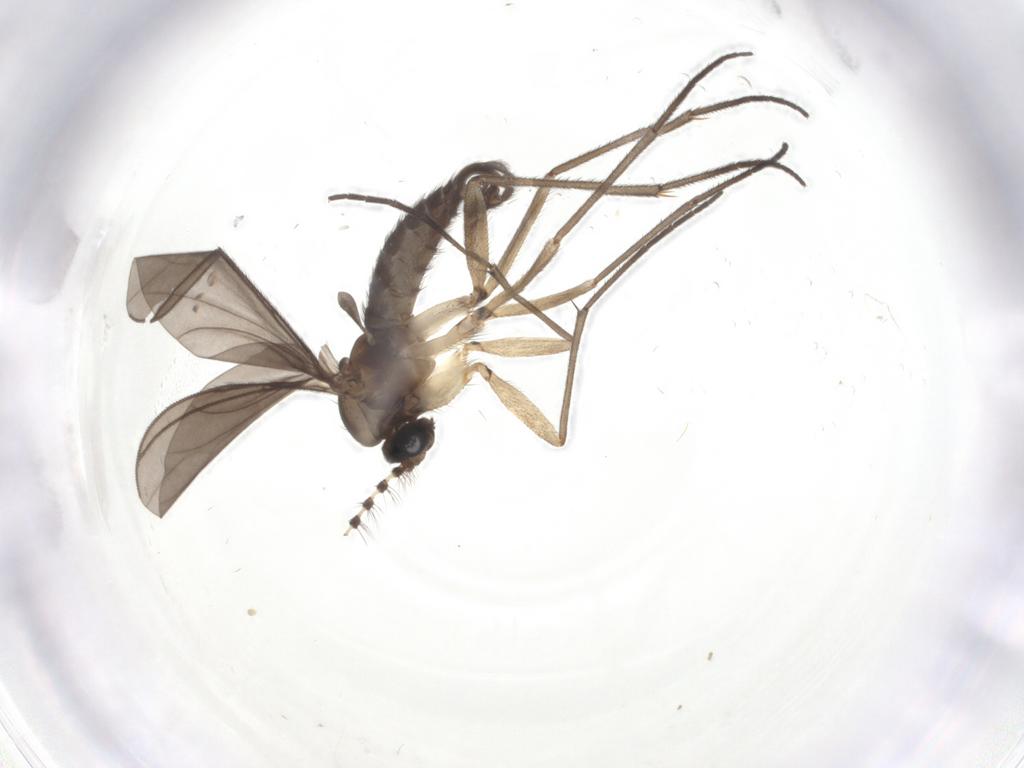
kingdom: Animalia
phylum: Arthropoda
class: Insecta
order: Diptera
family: Sciaridae
